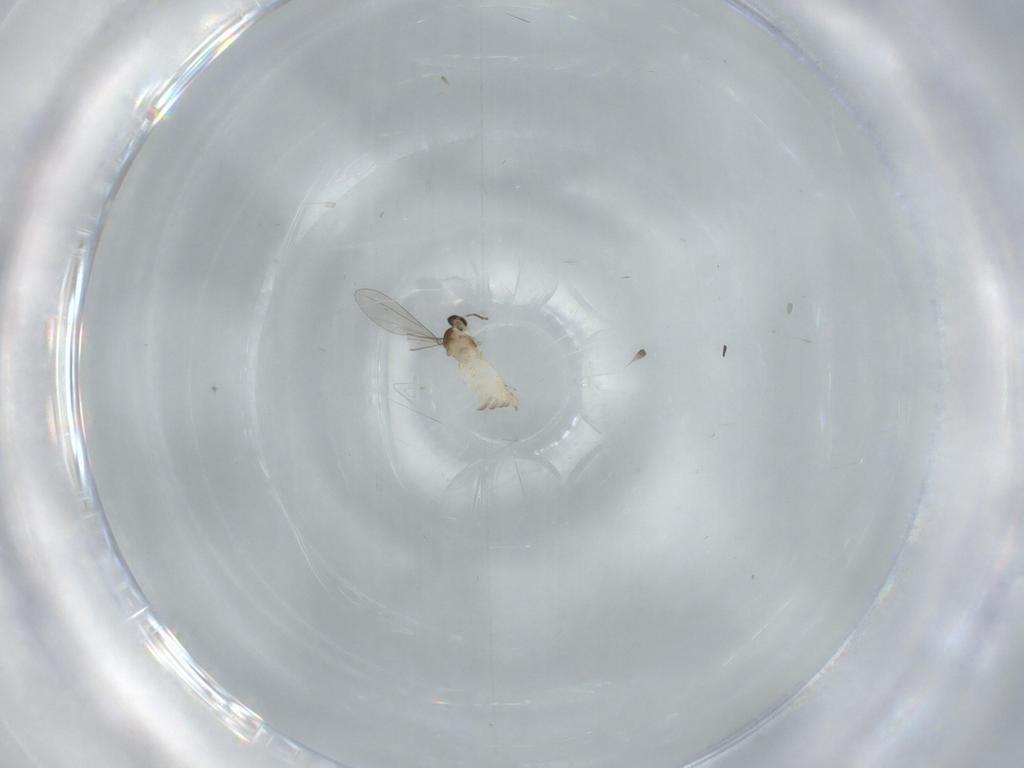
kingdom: Animalia
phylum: Arthropoda
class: Insecta
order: Diptera
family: Cecidomyiidae
